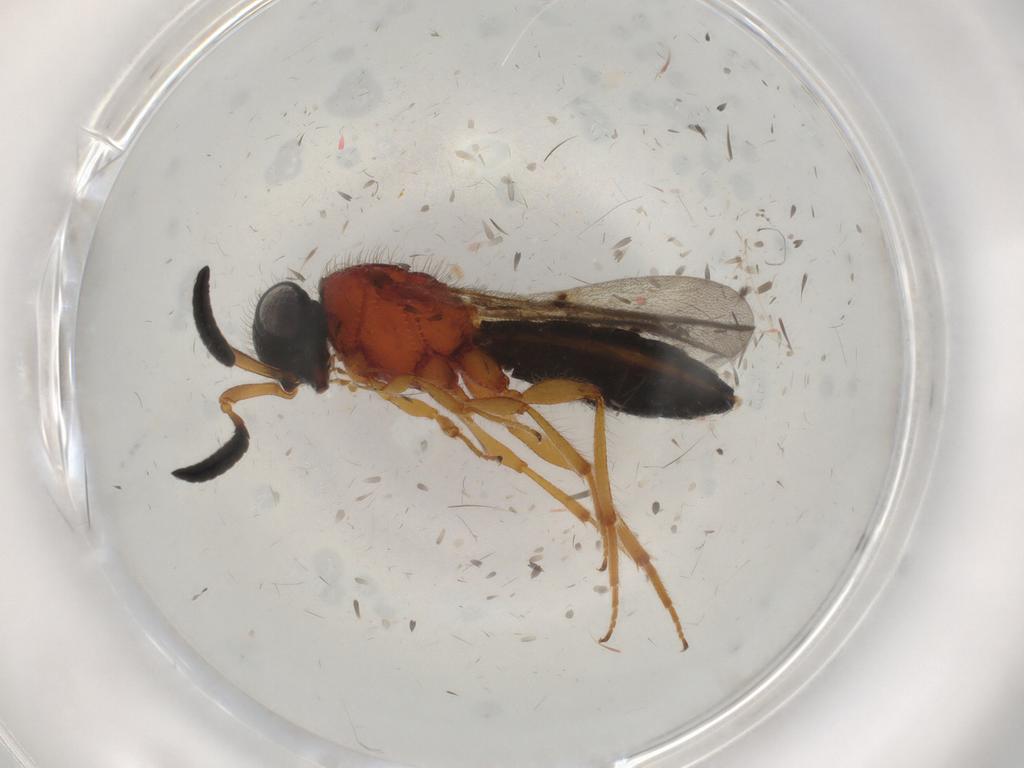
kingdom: Animalia
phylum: Arthropoda
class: Insecta
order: Hymenoptera
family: Scelionidae
